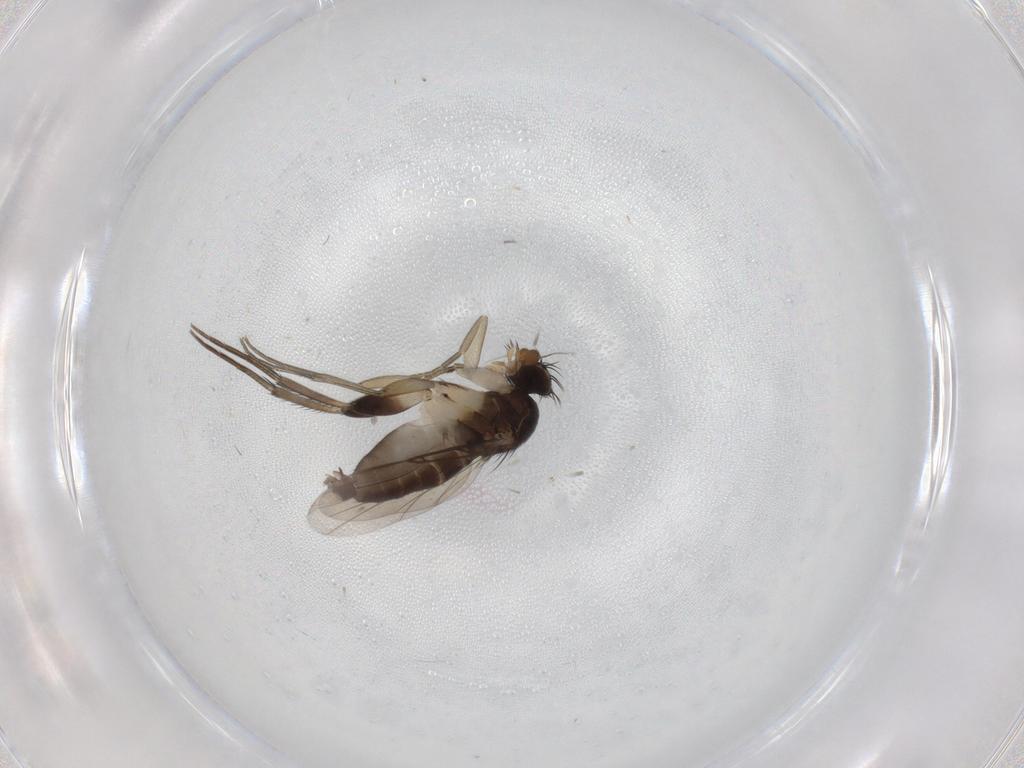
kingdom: Animalia
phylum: Arthropoda
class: Insecta
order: Diptera
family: Phoridae
